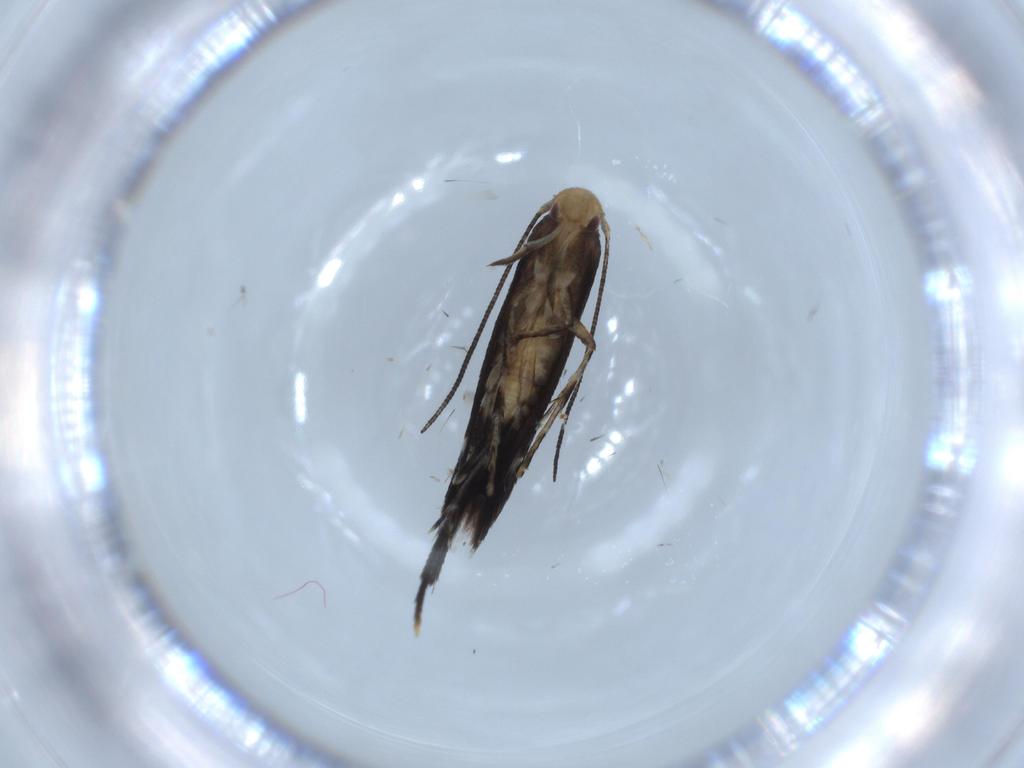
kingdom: Animalia
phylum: Arthropoda
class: Insecta
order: Lepidoptera
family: Momphidae
